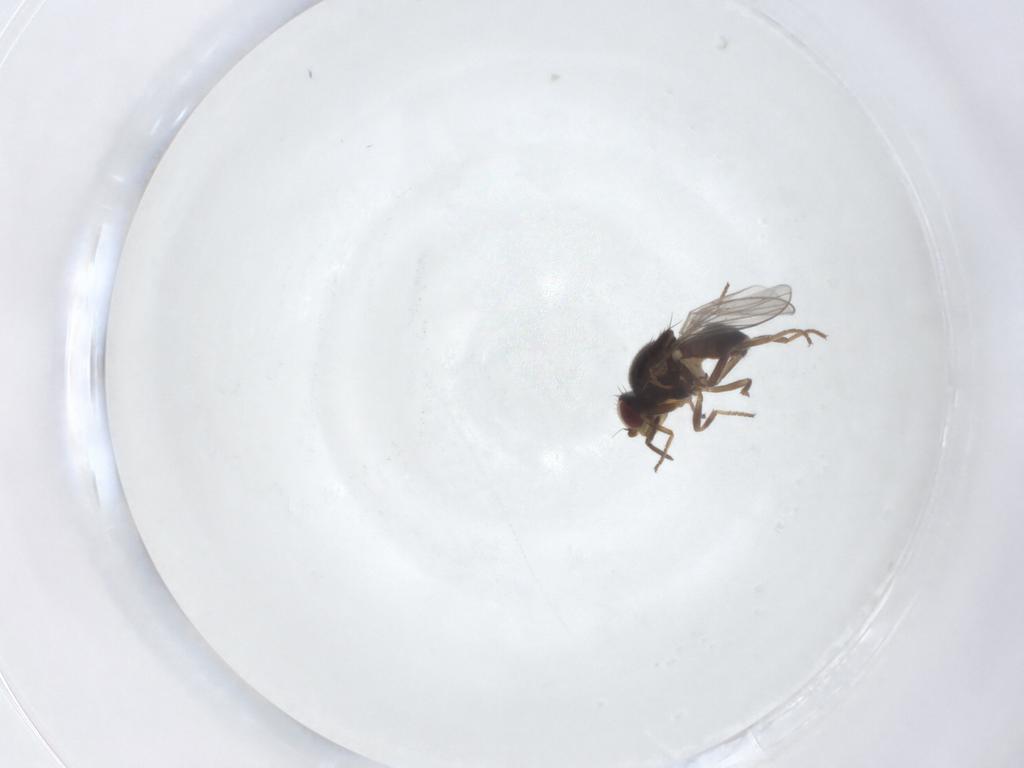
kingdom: Animalia
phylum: Arthropoda
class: Insecta
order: Diptera
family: Chloropidae
